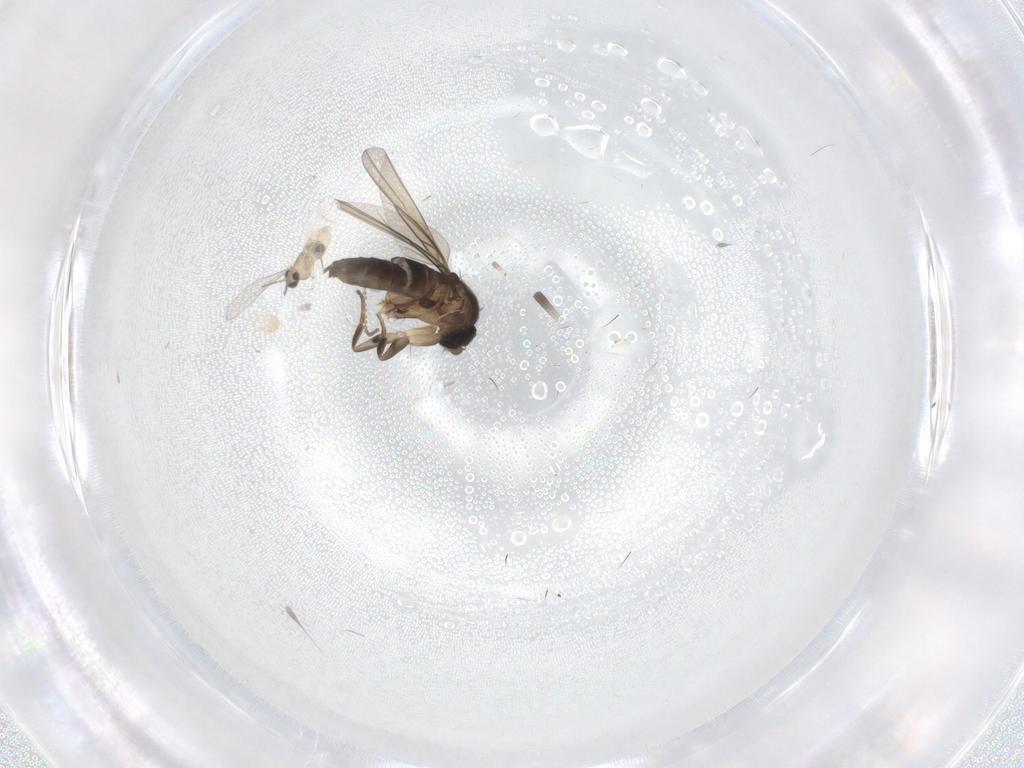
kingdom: Animalia
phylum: Arthropoda
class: Insecta
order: Diptera
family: Cecidomyiidae
